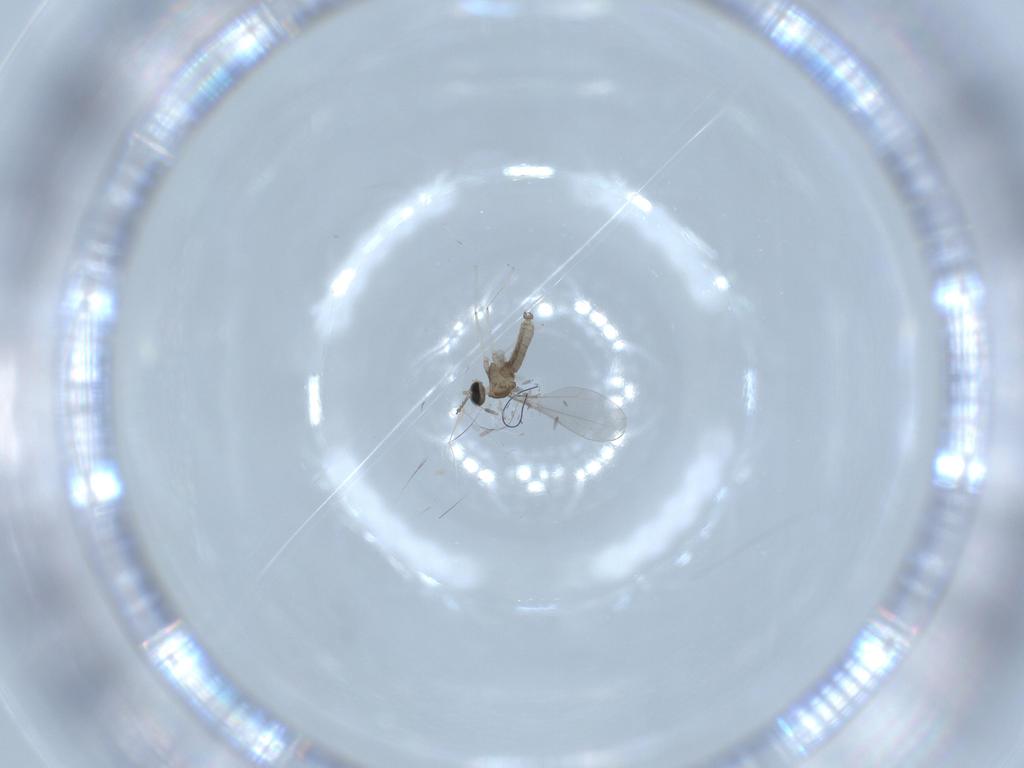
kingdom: Animalia
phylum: Arthropoda
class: Insecta
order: Diptera
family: Cecidomyiidae
